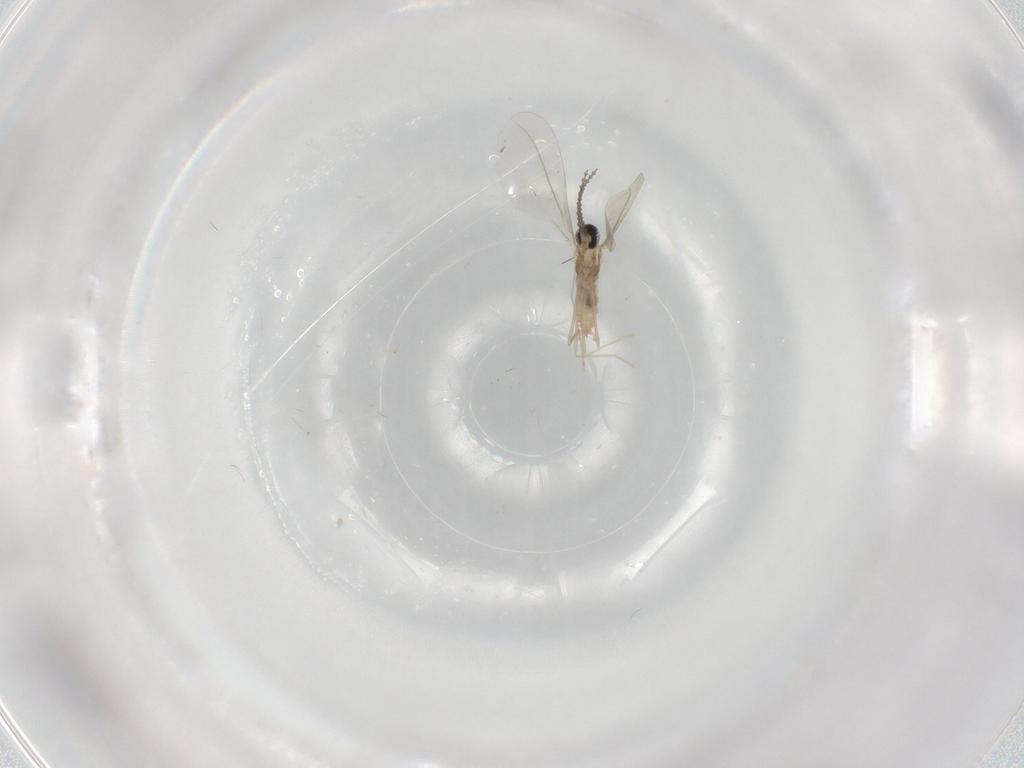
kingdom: Animalia
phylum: Arthropoda
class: Insecta
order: Diptera
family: Cecidomyiidae
